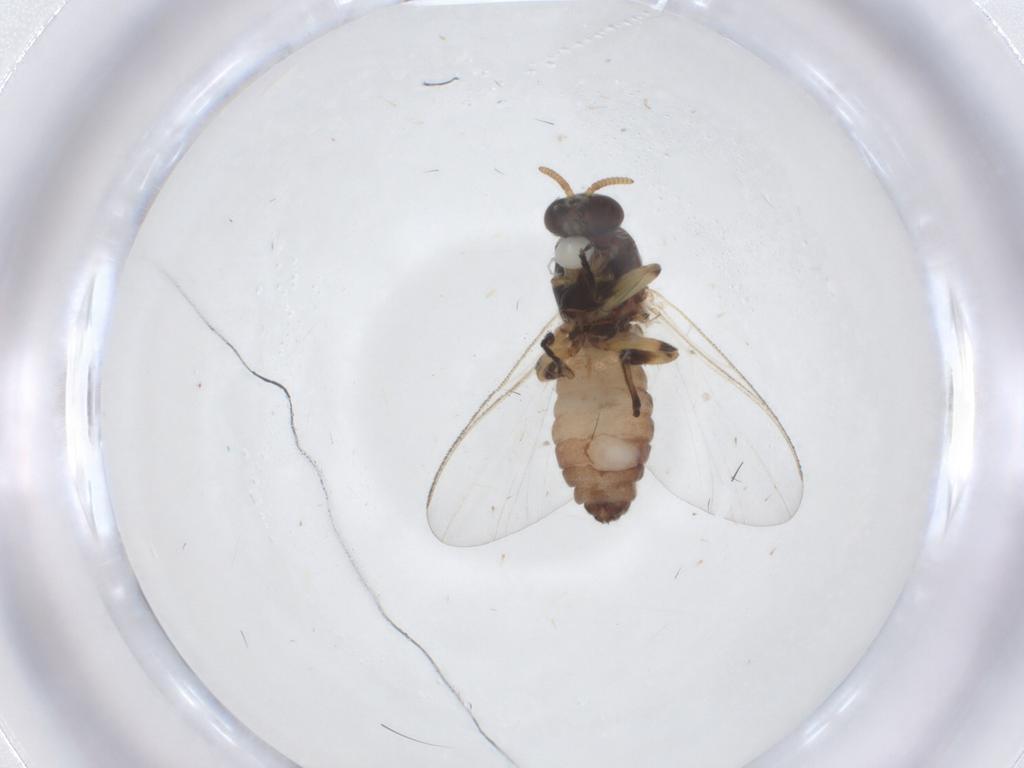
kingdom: Animalia
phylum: Arthropoda
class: Insecta
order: Diptera
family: Simuliidae
